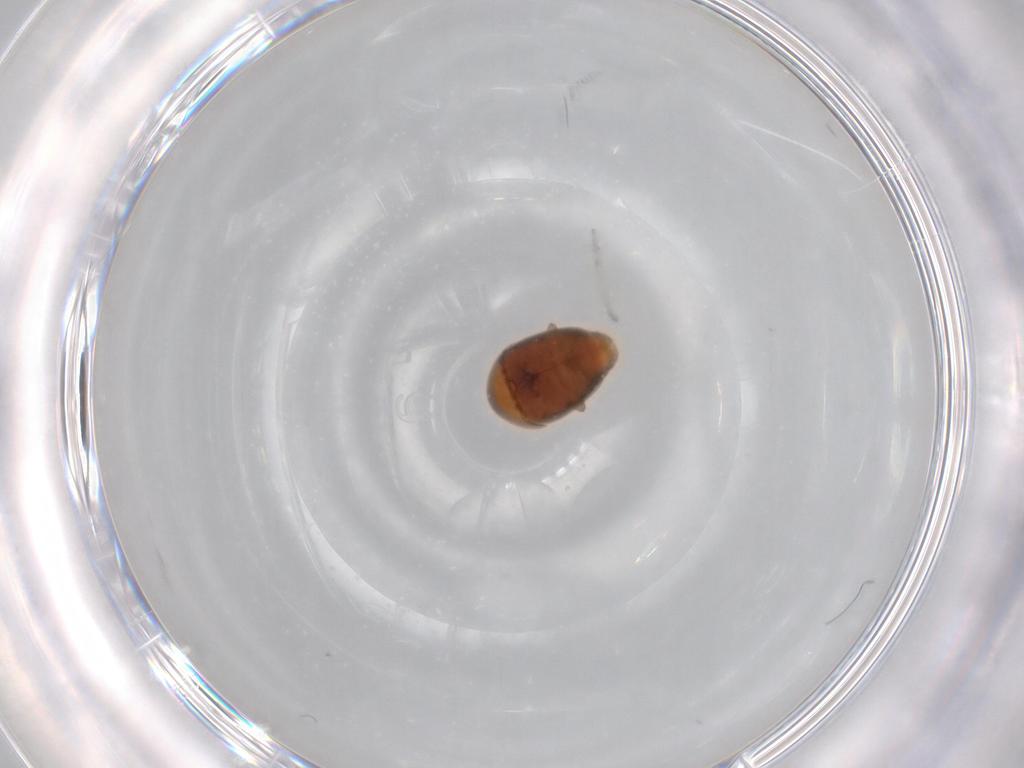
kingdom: Animalia
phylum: Arthropoda
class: Insecta
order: Coleoptera
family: Corylophidae
